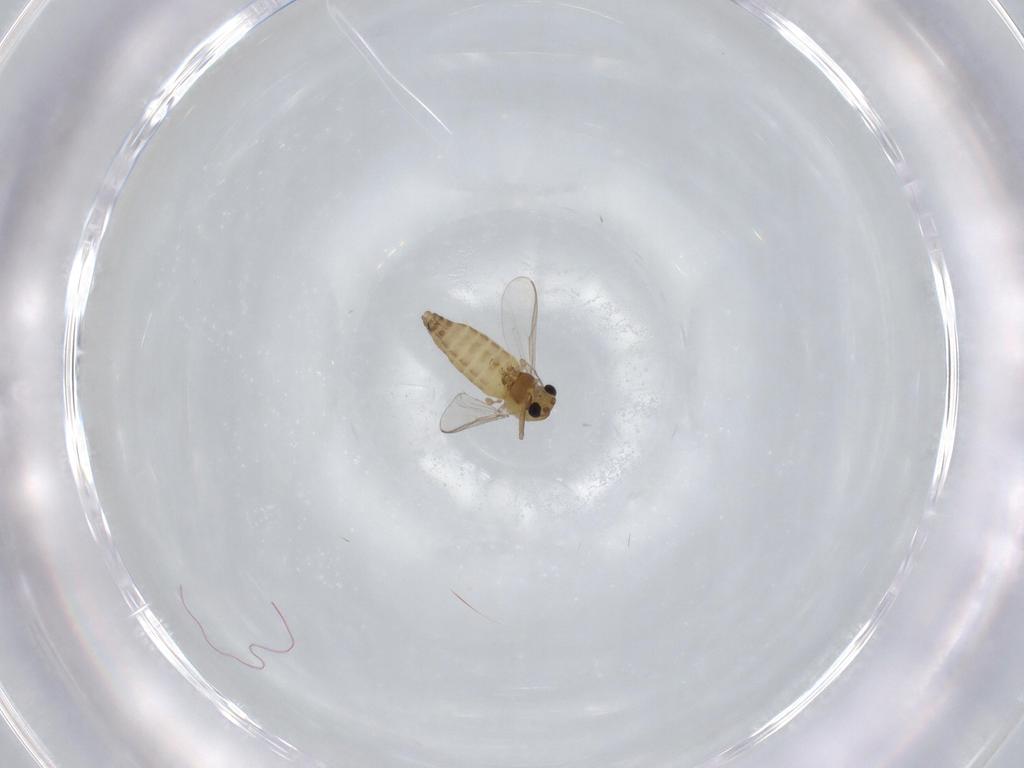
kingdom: Animalia
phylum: Arthropoda
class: Insecta
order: Diptera
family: Chironomidae
